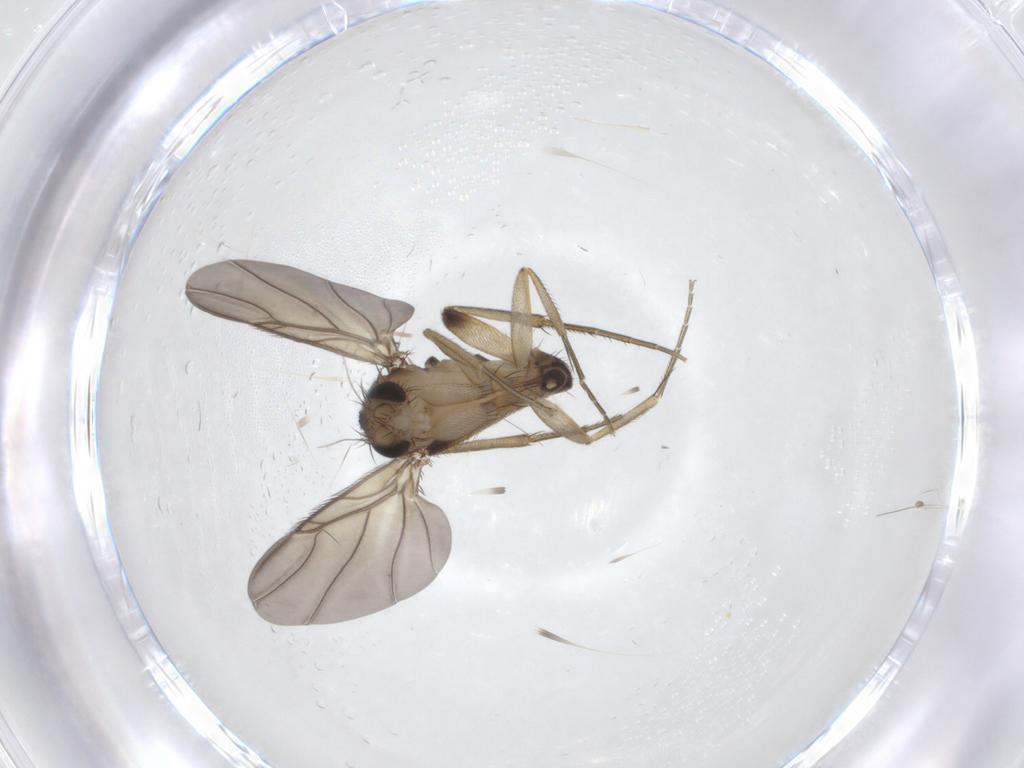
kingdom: Animalia
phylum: Arthropoda
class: Insecta
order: Diptera
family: Phoridae
